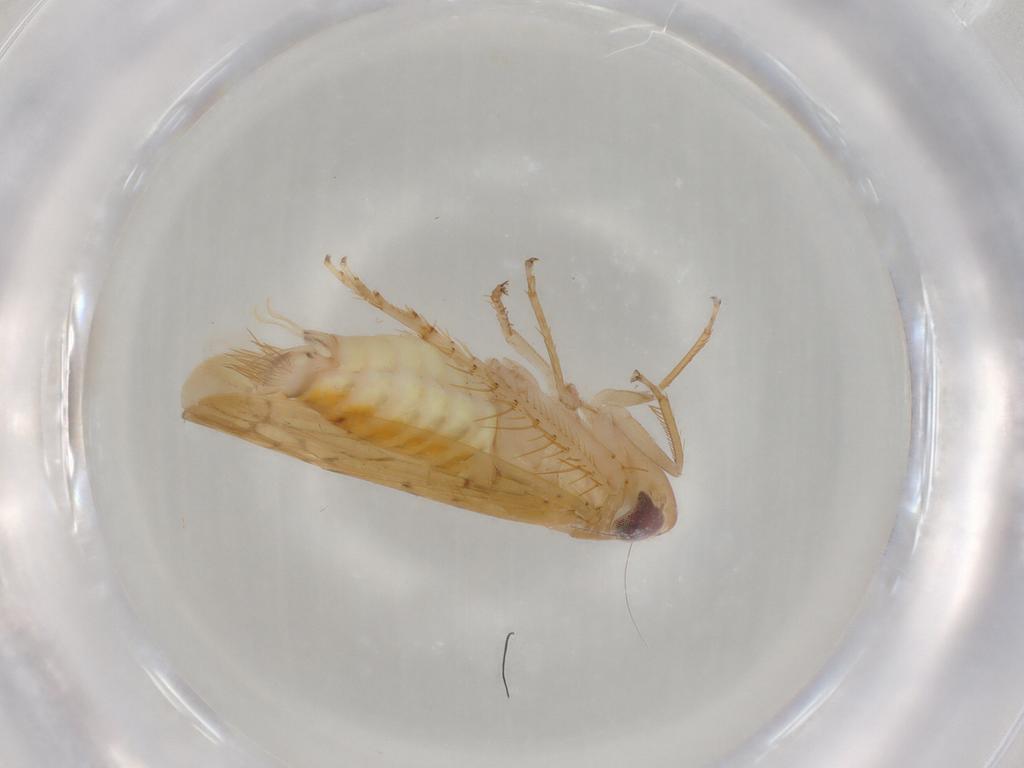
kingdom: Animalia
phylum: Arthropoda
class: Insecta
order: Hemiptera
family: Cicadellidae
